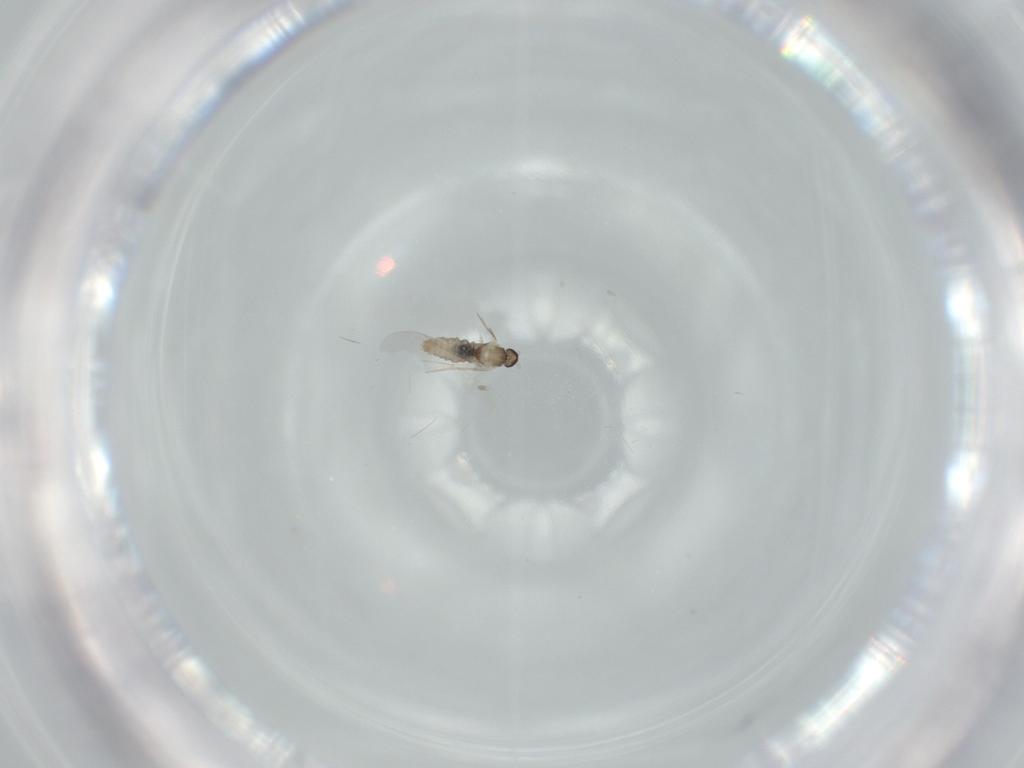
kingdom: Animalia
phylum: Arthropoda
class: Insecta
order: Diptera
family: Cecidomyiidae
